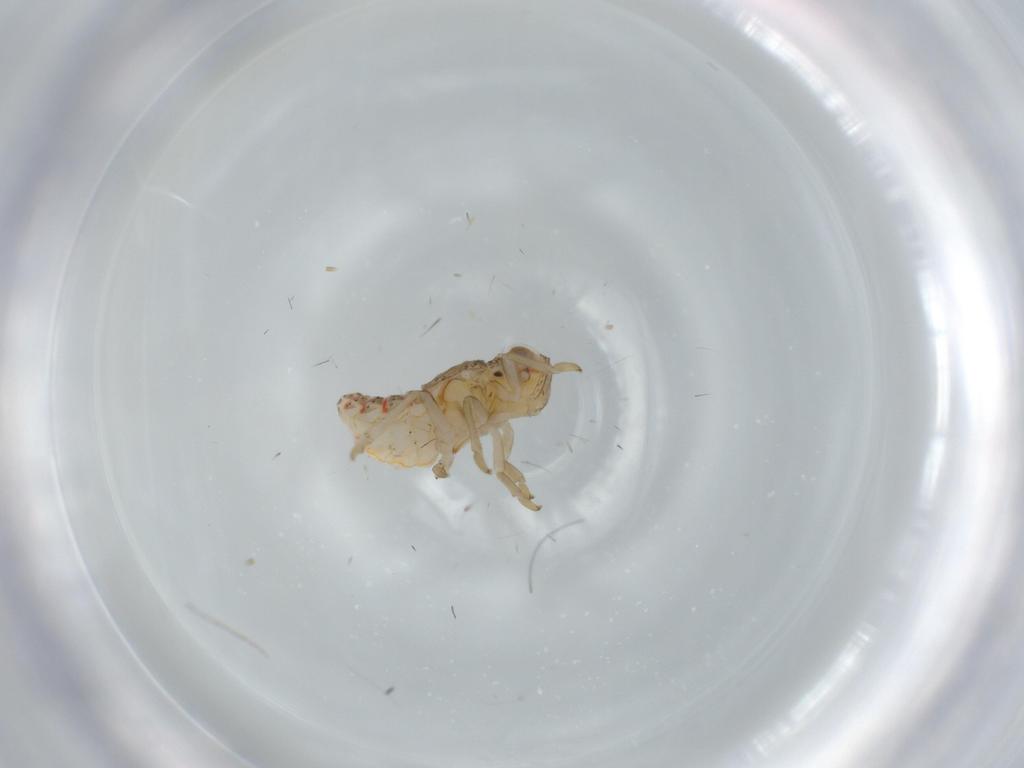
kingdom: Animalia
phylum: Arthropoda
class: Insecta
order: Hemiptera
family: Issidae
